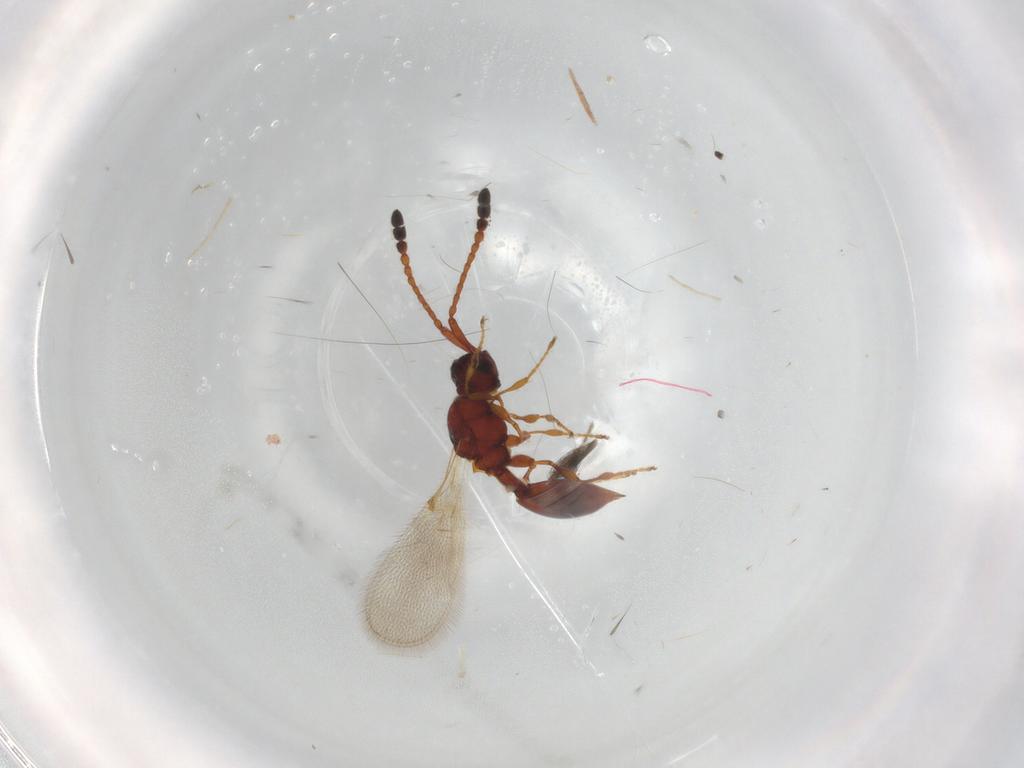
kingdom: Animalia
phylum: Arthropoda
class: Insecta
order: Hymenoptera
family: Diapriidae
